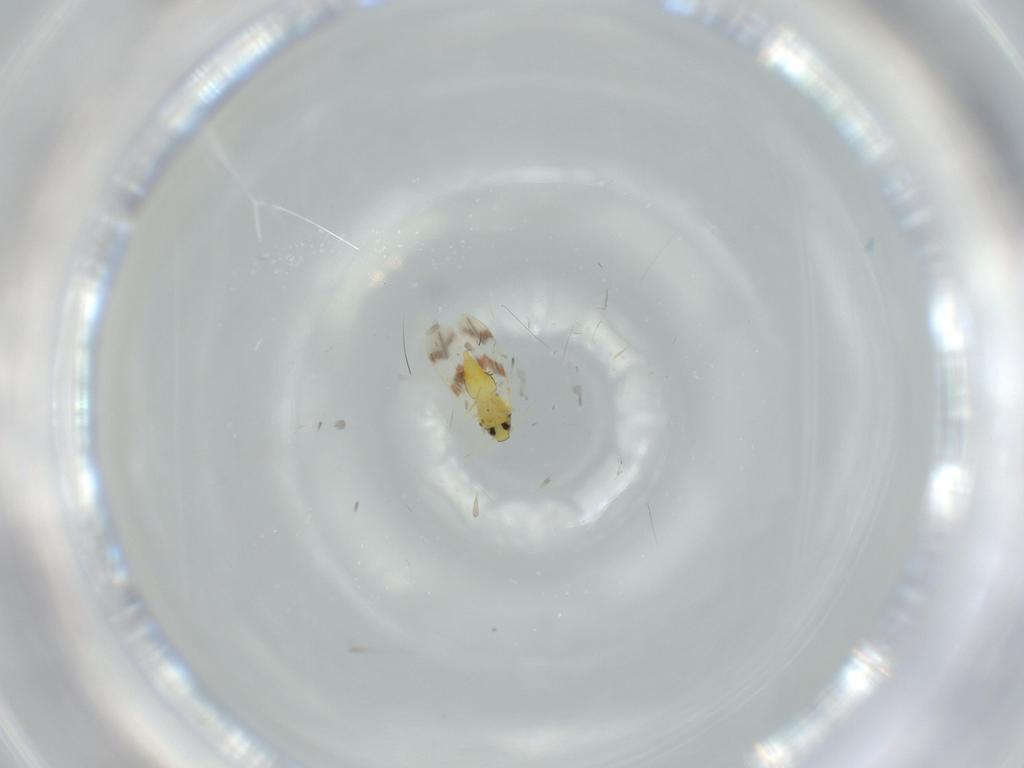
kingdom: Animalia
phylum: Arthropoda
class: Insecta
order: Hemiptera
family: Aleyrodidae
